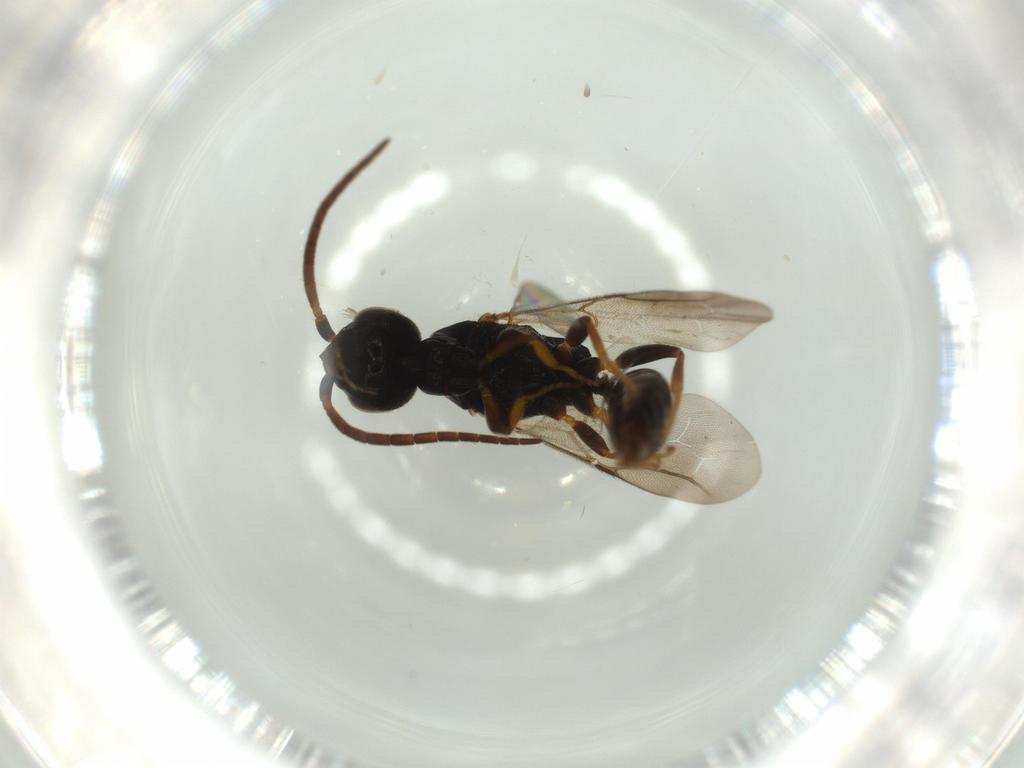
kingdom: Animalia
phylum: Arthropoda
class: Insecta
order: Hymenoptera
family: Bethylidae
